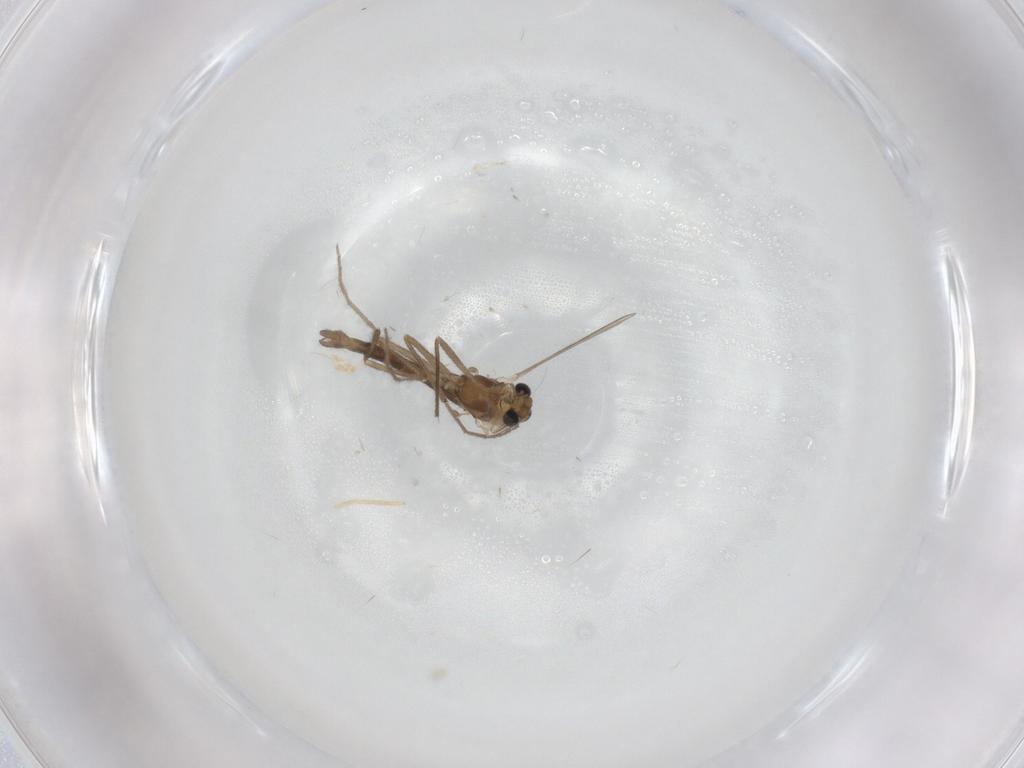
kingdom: Animalia
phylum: Arthropoda
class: Insecta
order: Diptera
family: Chironomidae
